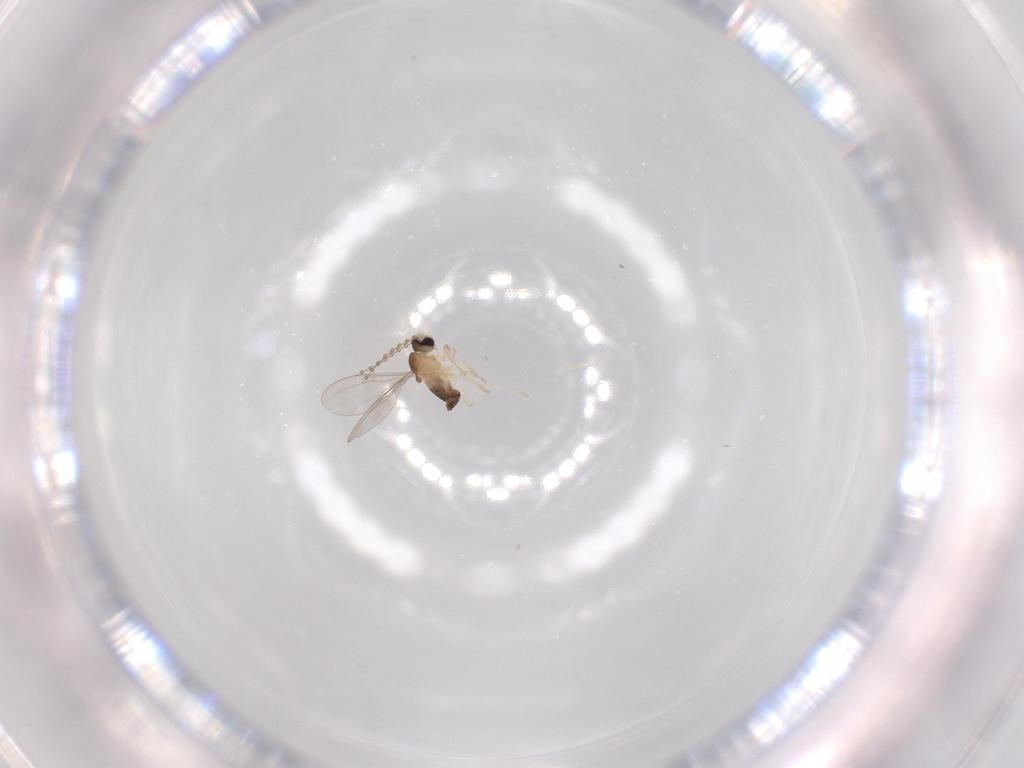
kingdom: Animalia
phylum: Arthropoda
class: Insecta
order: Diptera
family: Cecidomyiidae
